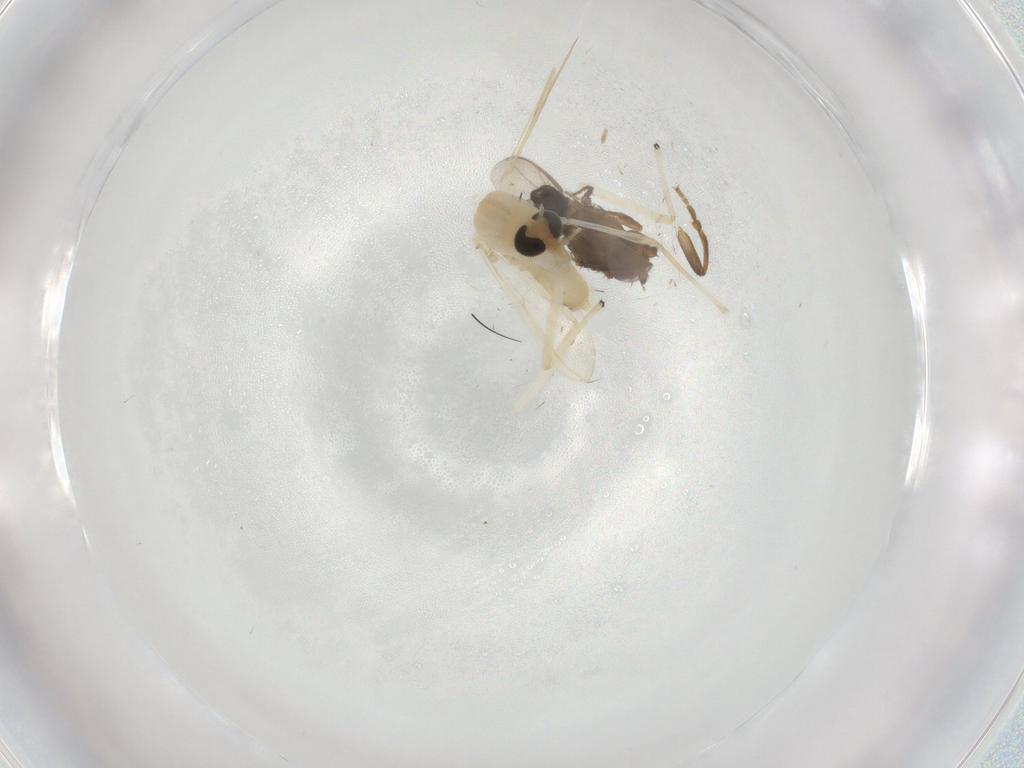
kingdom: Animalia
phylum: Arthropoda
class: Insecta
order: Diptera
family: Chironomidae
